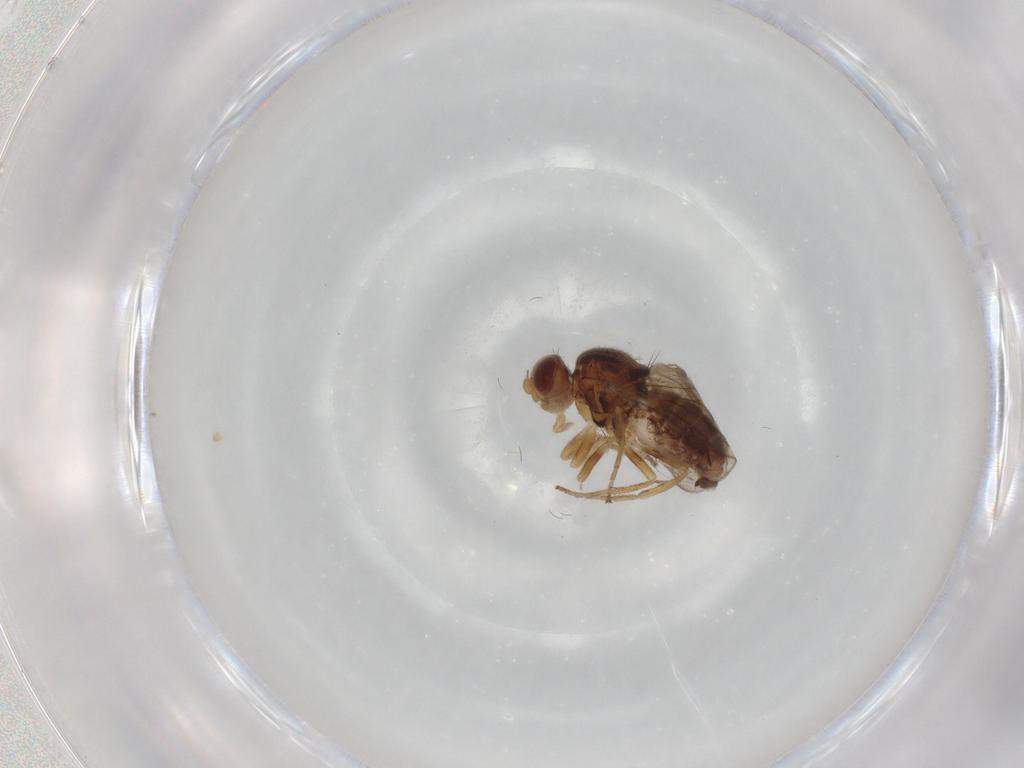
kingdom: Animalia
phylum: Arthropoda
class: Insecta
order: Diptera
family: Chloropidae
